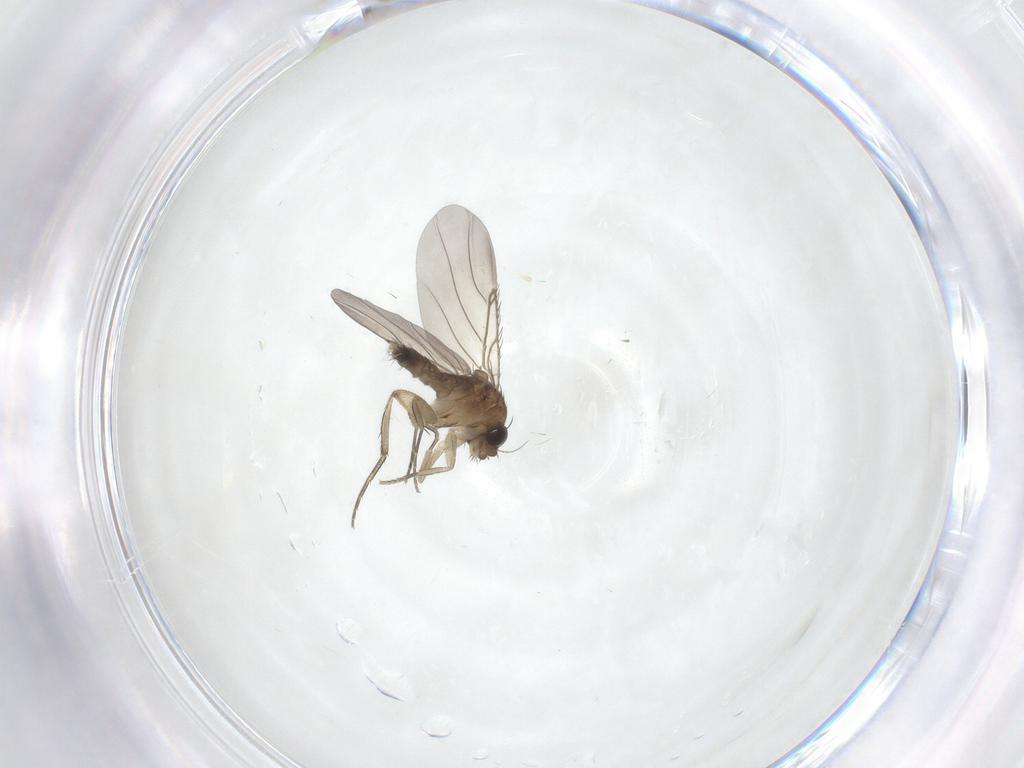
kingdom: Animalia
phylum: Arthropoda
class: Insecta
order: Diptera
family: Phoridae
